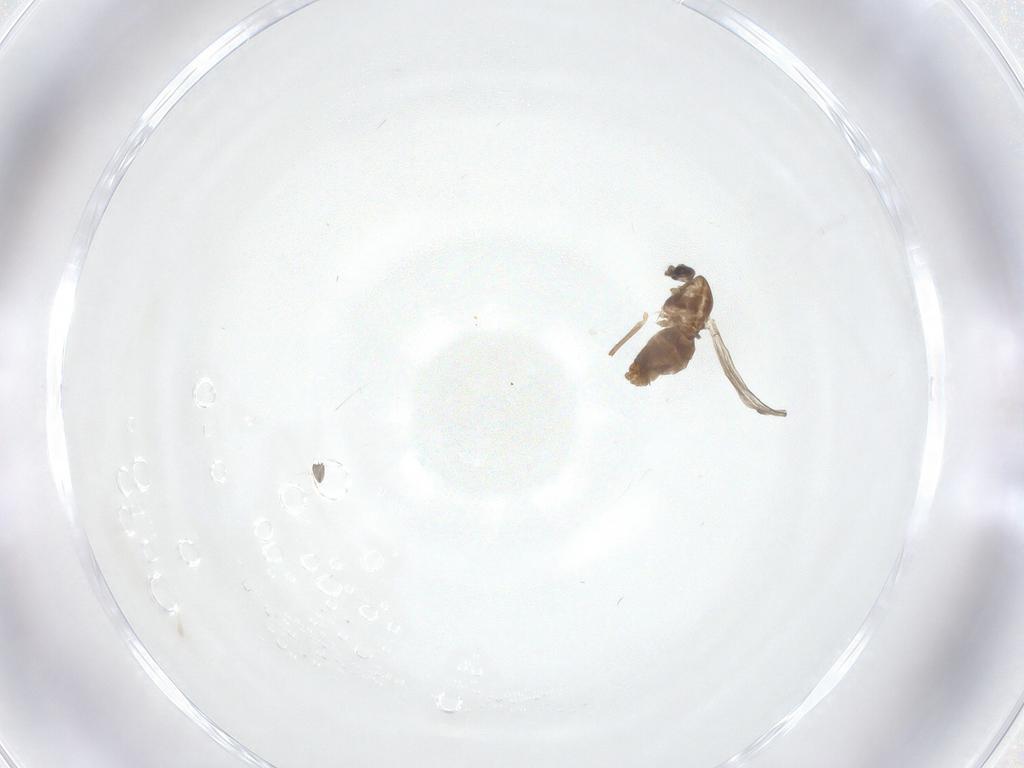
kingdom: Animalia
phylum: Arthropoda
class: Insecta
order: Diptera
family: Chironomidae
